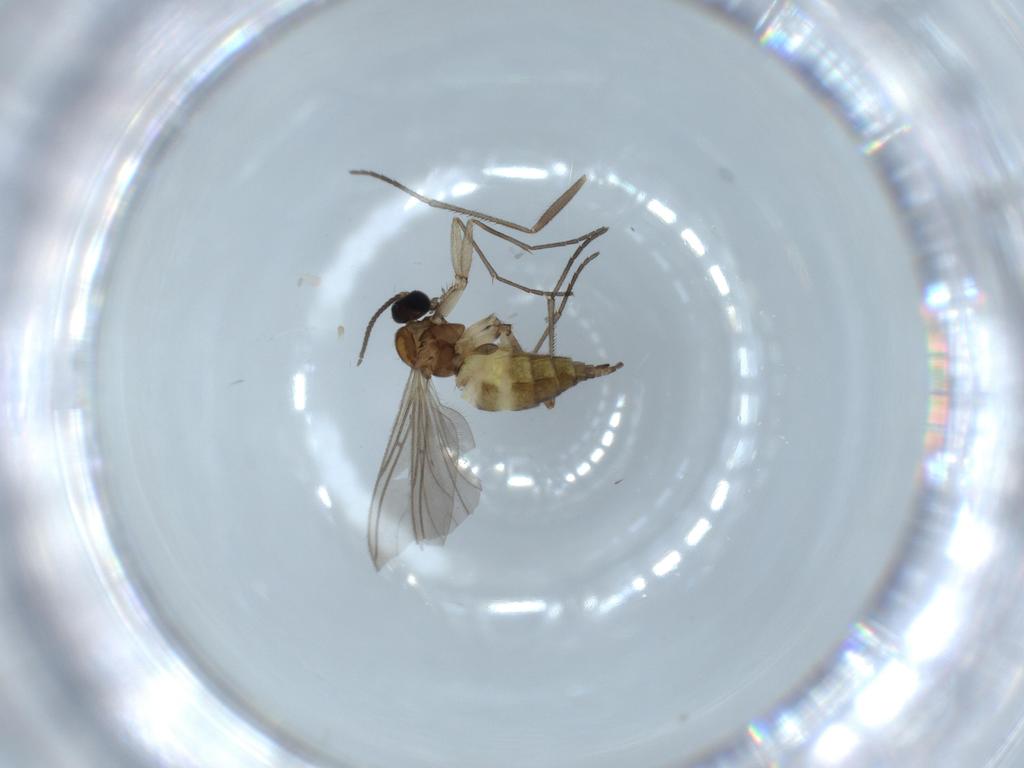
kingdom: Animalia
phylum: Arthropoda
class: Insecta
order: Diptera
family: Sciaridae
